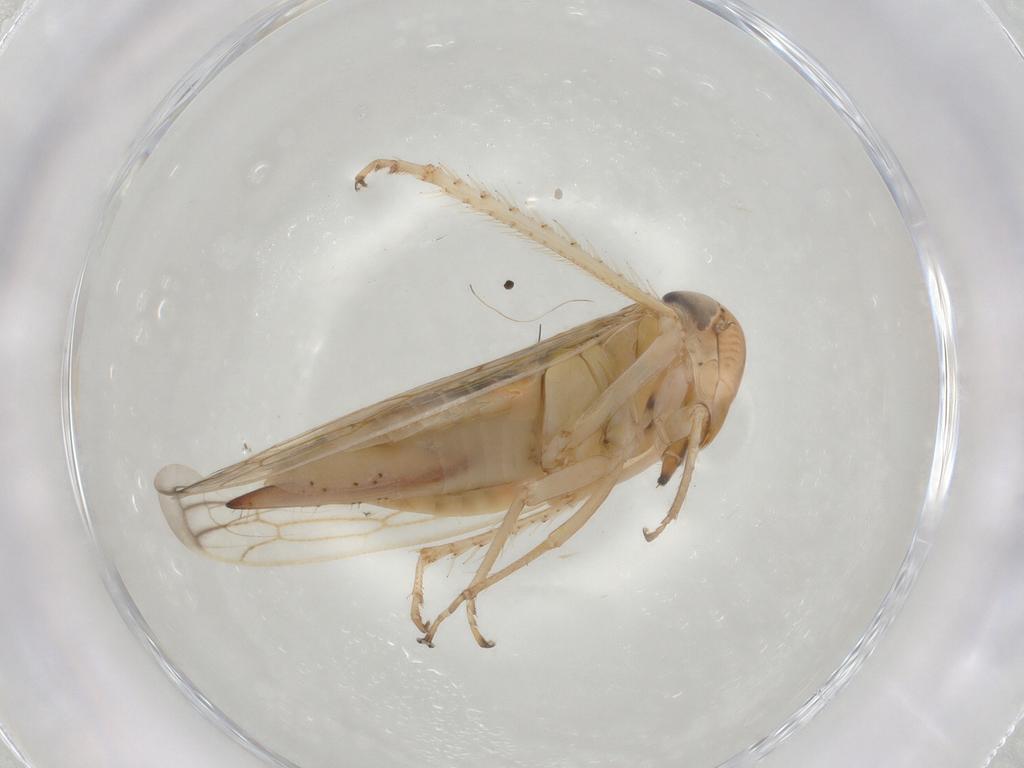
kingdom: Animalia
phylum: Arthropoda
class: Insecta
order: Hemiptera
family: Cicadellidae
